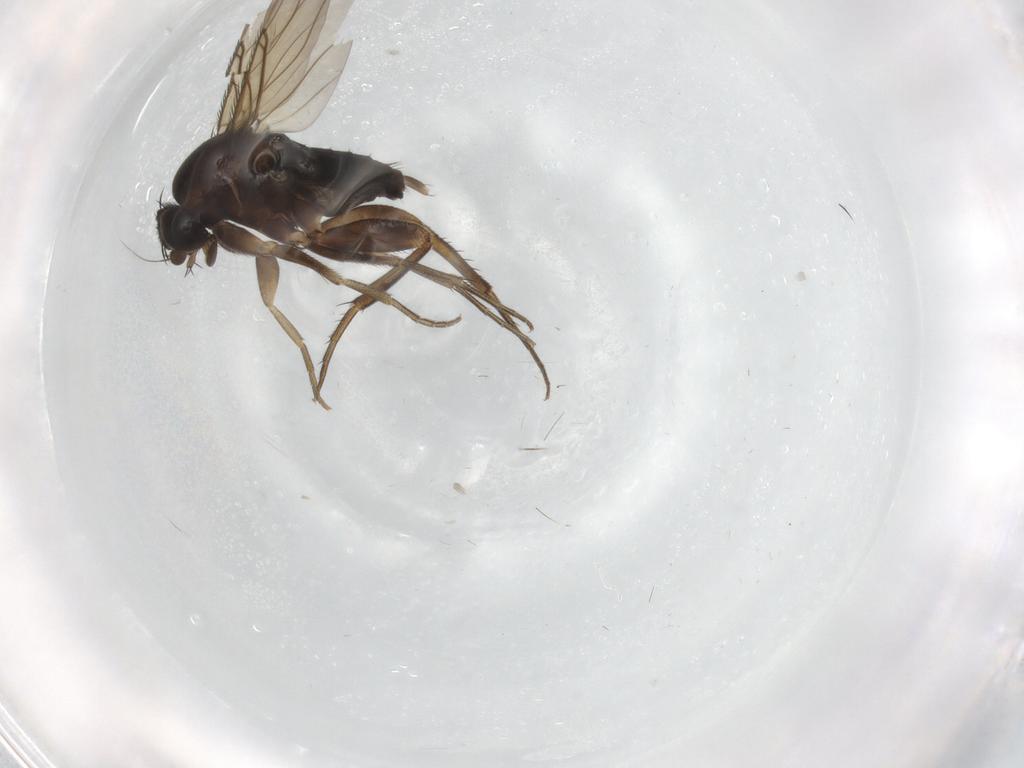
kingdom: Animalia
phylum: Arthropoda
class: Insecta
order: Diptera
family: Phoridae
